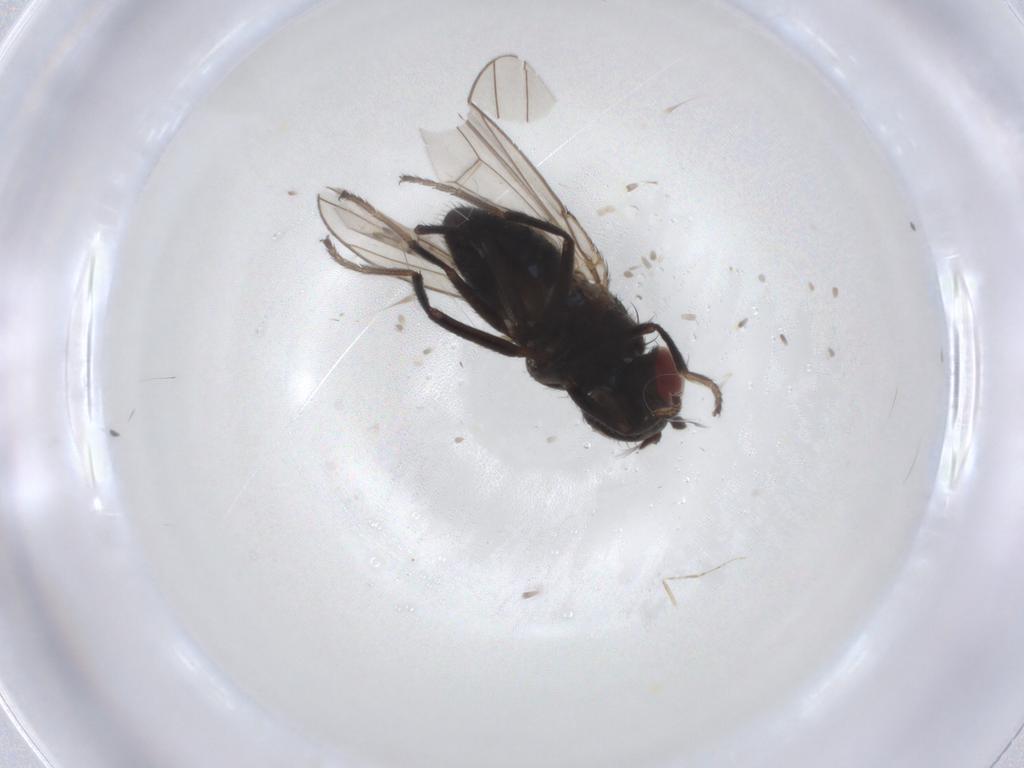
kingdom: Animalia
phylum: Arthropoda
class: Insecta
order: Diptera
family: Ephydridae
